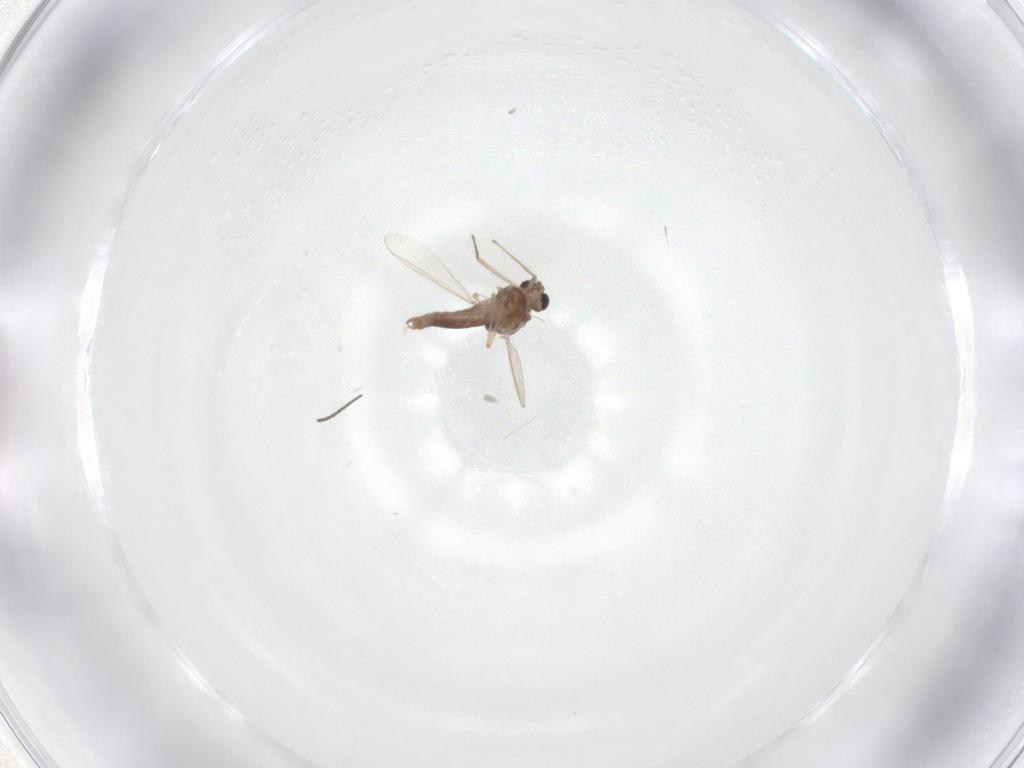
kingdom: Animalia
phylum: Arthropoda
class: Insecta
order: Diptera
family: Chironomidae
